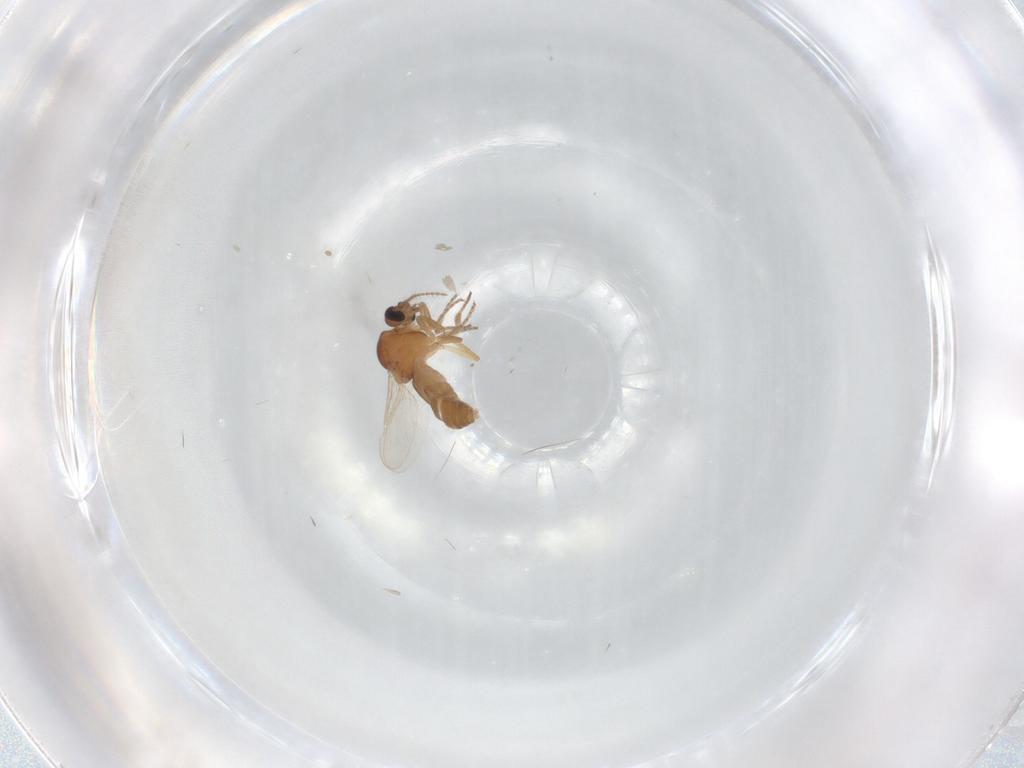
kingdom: Animalia
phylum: Arthropoda
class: Insecta
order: Diptera
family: Ceratopogonidae
